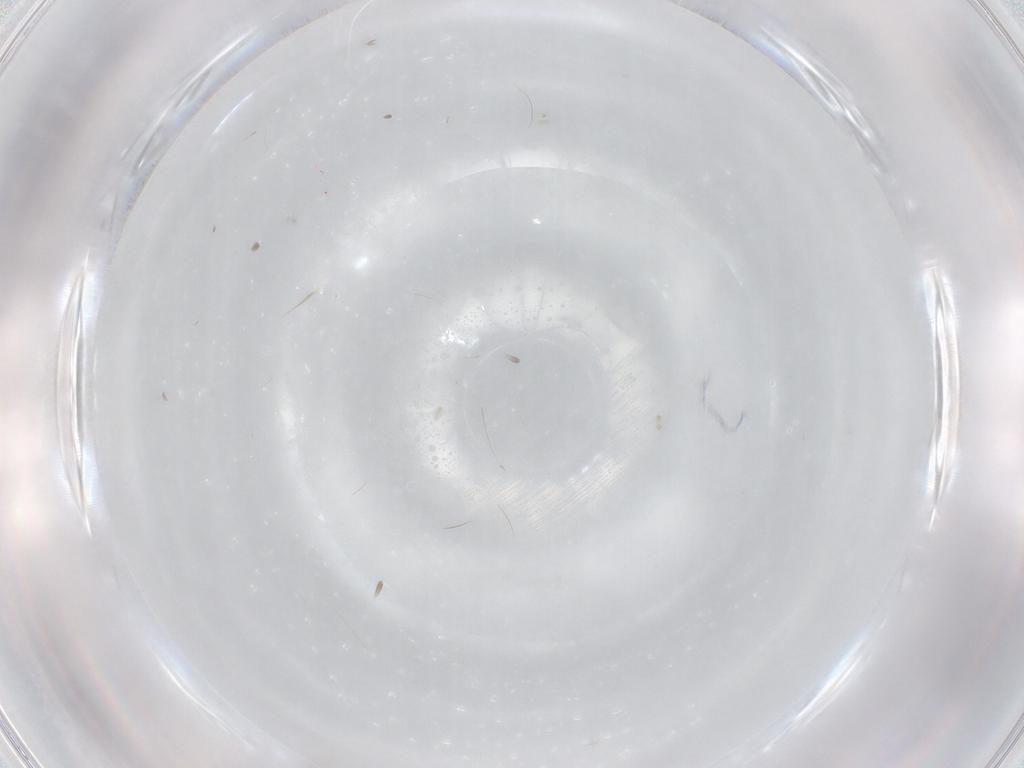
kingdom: Animalia
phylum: Arthropoda
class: Insecta
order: Diptera
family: Cecidomyiidae
